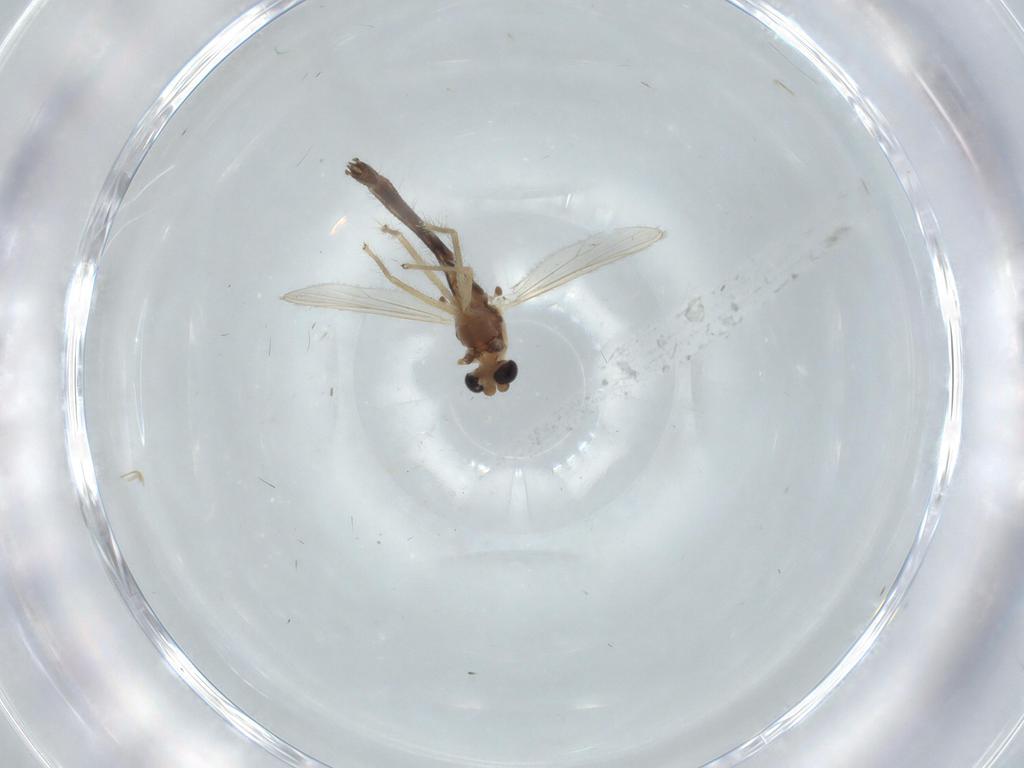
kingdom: Animalia
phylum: Arthropoda
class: Insecta
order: Diptera
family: Chironomidae
